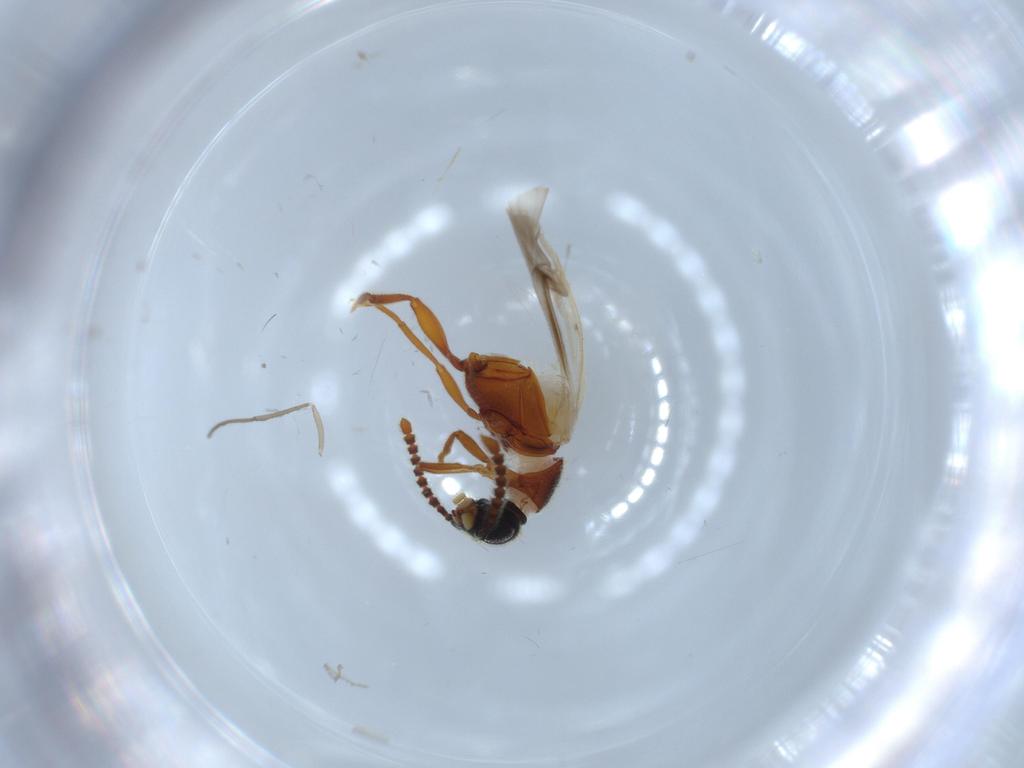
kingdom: Animalia
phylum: Arthropoda
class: Insecta
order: Coleoptera
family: Aderidae
